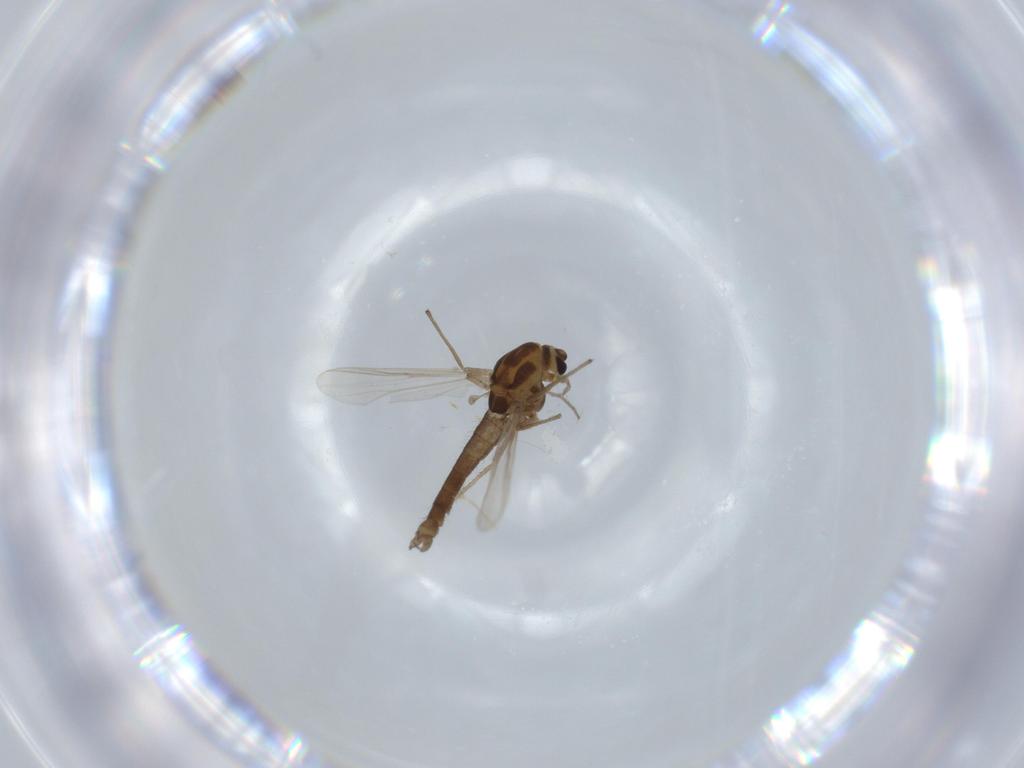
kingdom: Animalia
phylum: Arthropoda
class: Insecta
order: Diptera
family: Chironomidae
